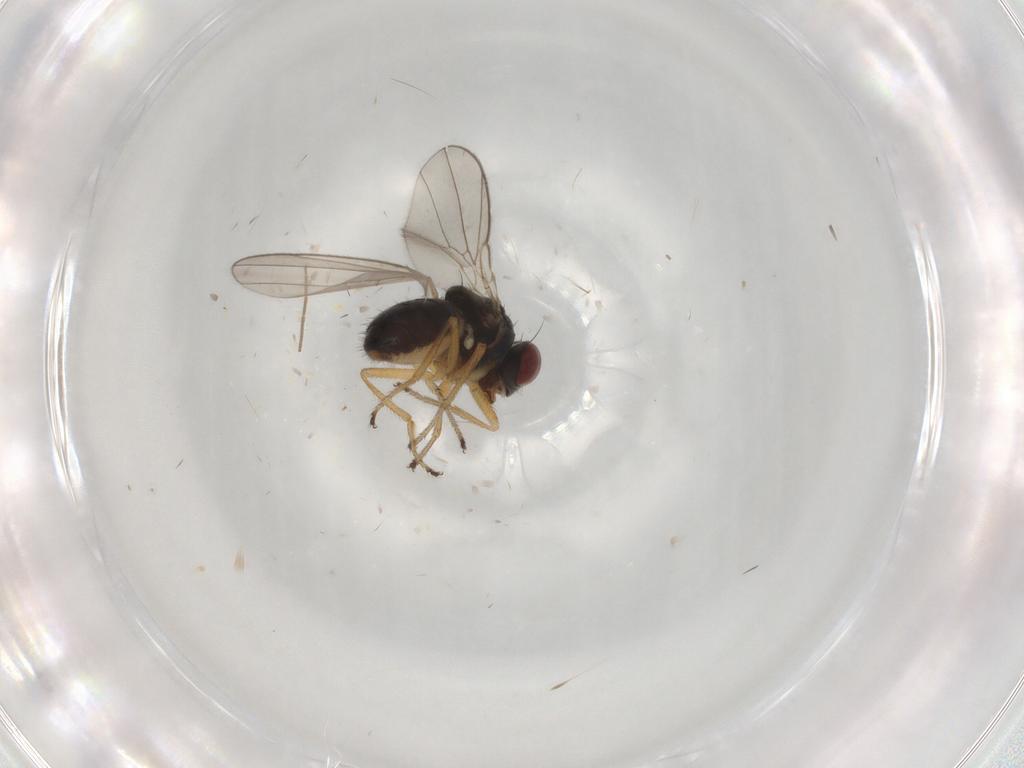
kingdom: Animalia
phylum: Arthropoda
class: Insecta
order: Diptera
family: Ephydridae
